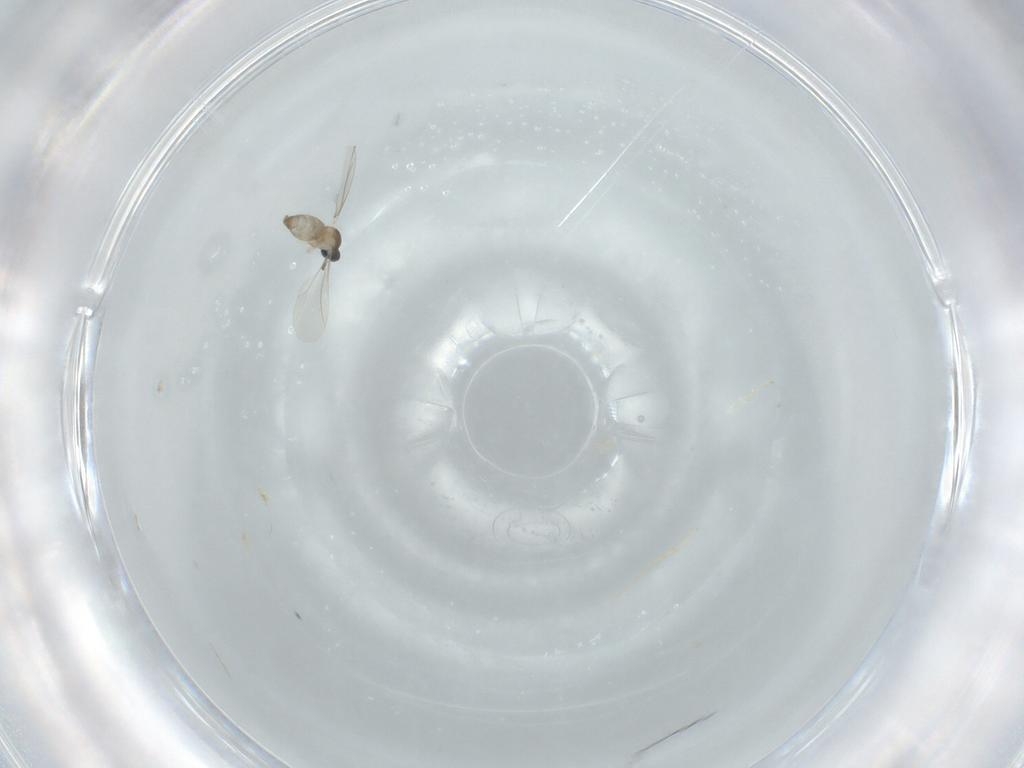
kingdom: Animalia
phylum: Arthropoda
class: Insecta
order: Diptera
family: Cecidomyiidae
